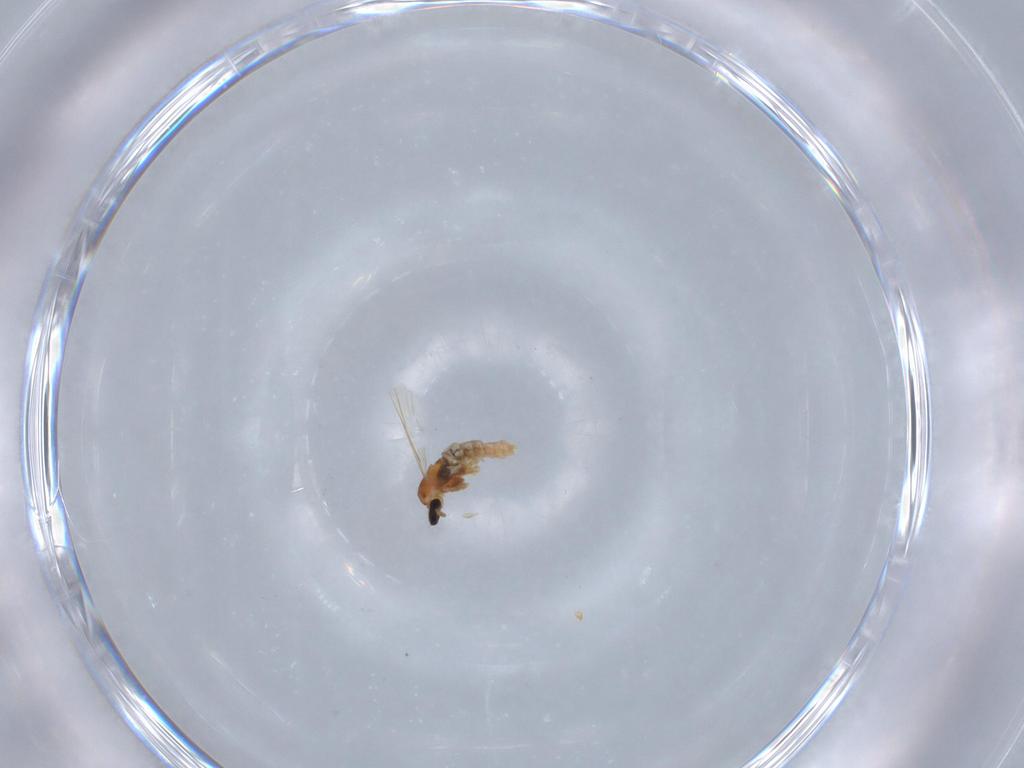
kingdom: Animalia
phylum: Arthropoda
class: Insecta
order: Diptera
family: Cecidomyiidae
